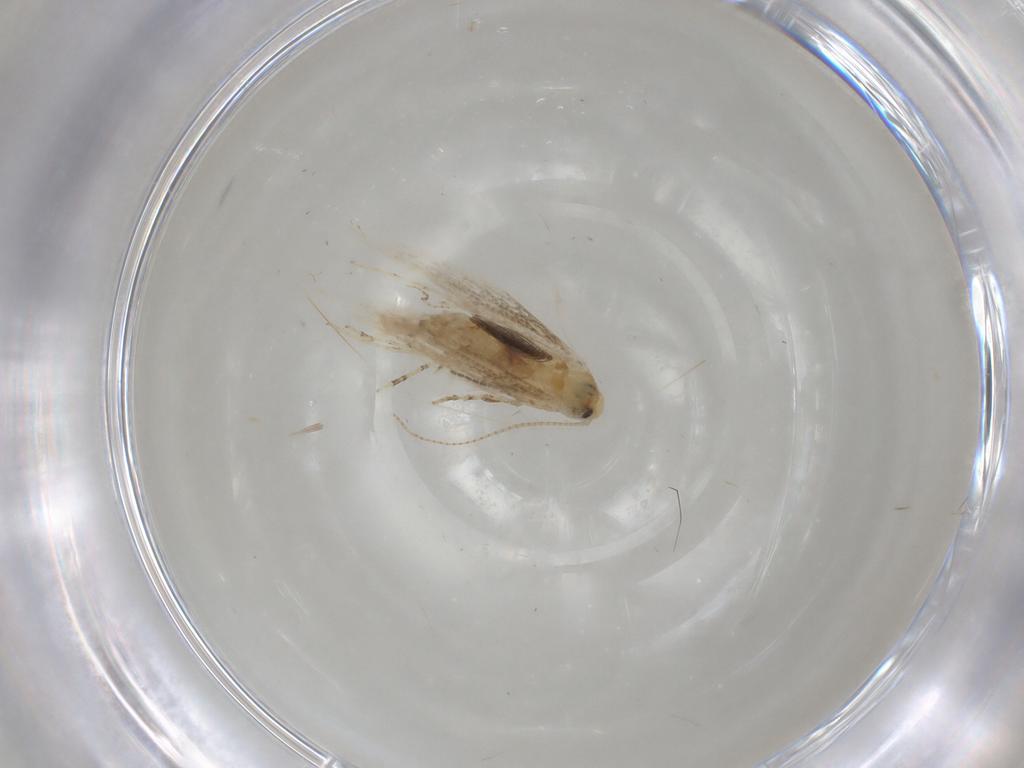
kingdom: Animalia
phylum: Arthropoda
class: Insecta
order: Lepidoptera
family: Gracillariidae
